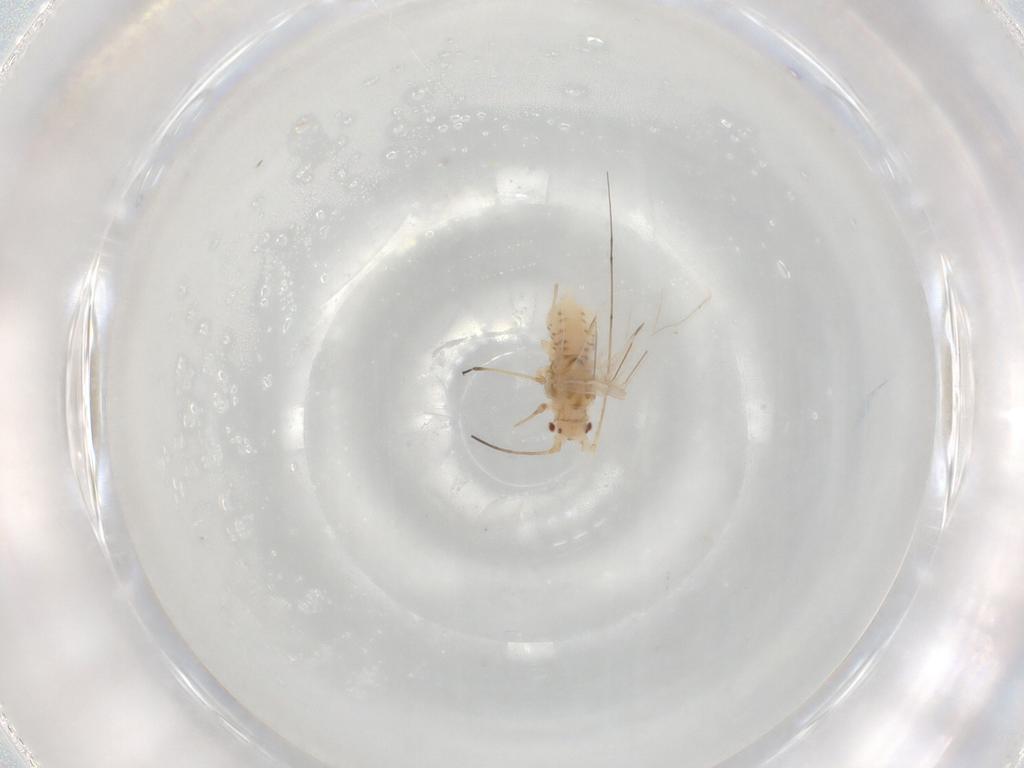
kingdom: Animalia
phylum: Arthropoda
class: Insecta
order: Hemiptera
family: Aphididae
